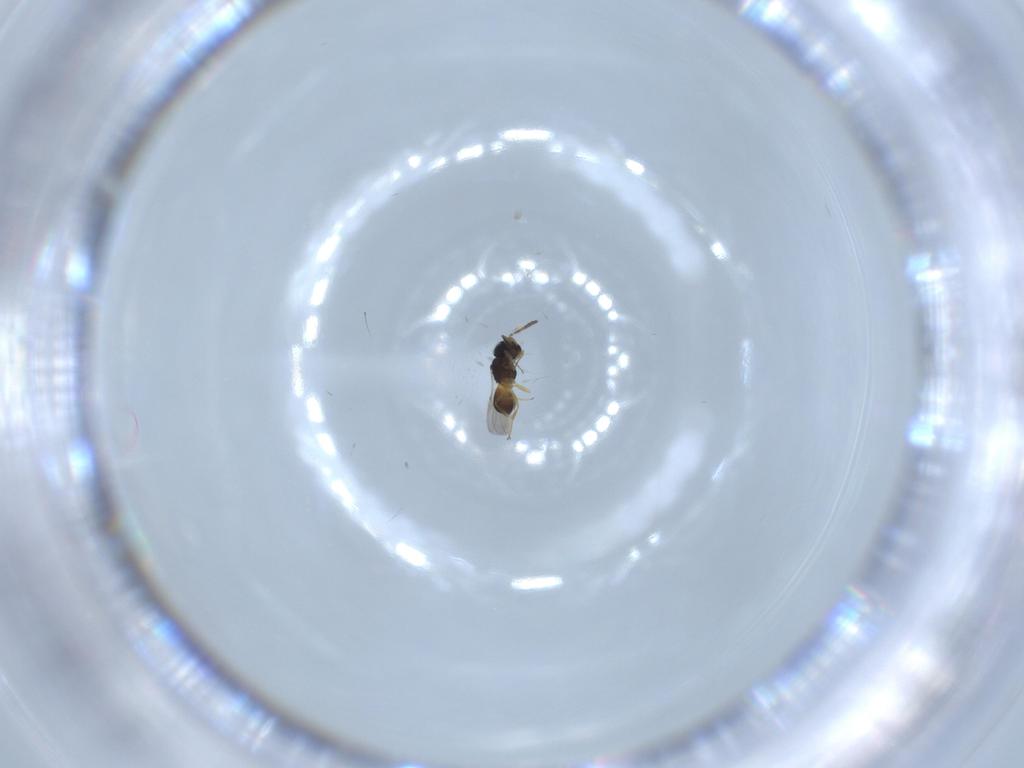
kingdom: Animalia
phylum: Arthropoda
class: Insecta
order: Hymenoptera
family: Scelionidae
